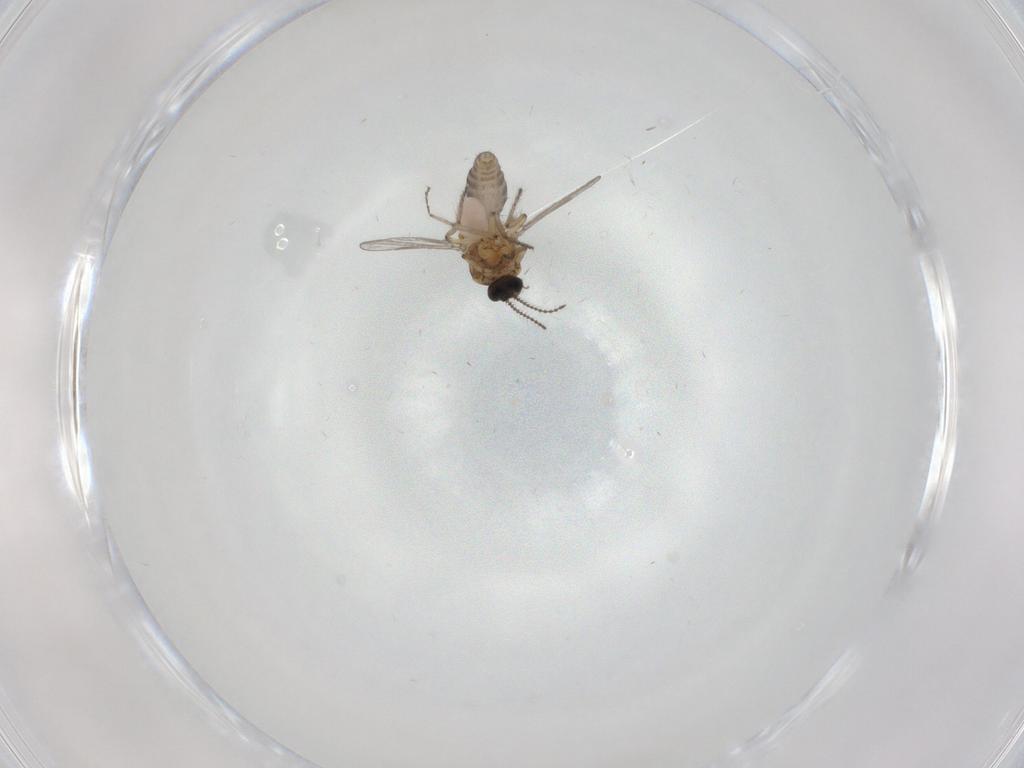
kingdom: Animalia
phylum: Arthropoda
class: Insecta
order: Diptera
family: Ceratopogonidae
